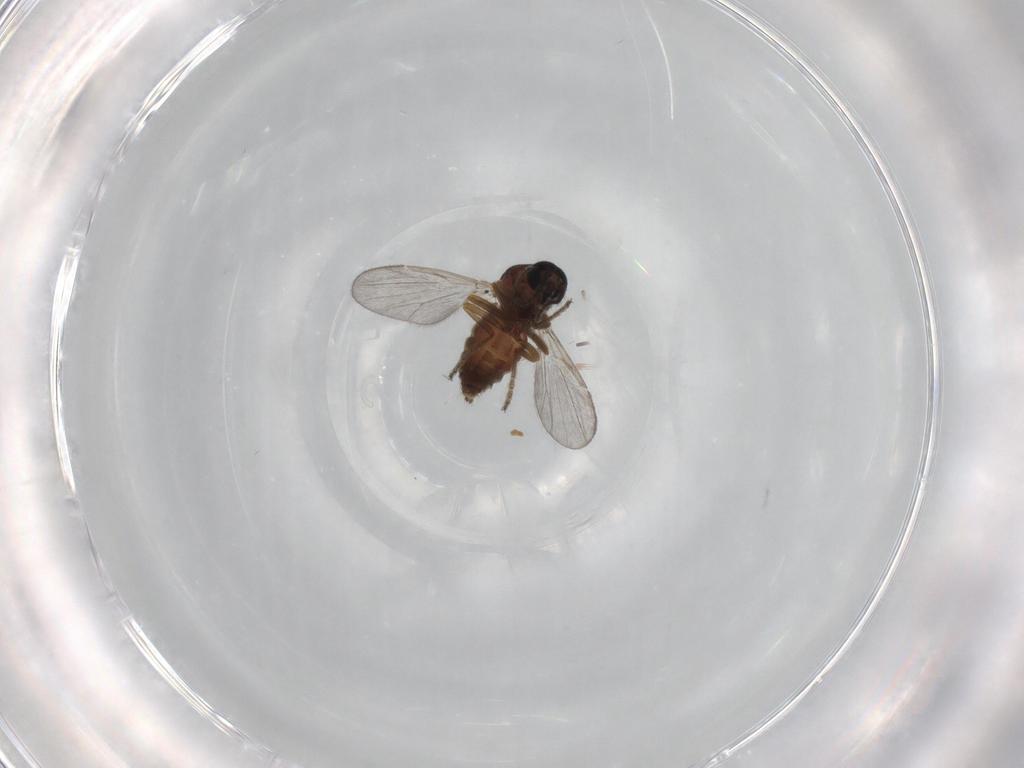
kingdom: Animalia
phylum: Arthropoda
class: Insecta
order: Diptera
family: Ceratopogonidae
